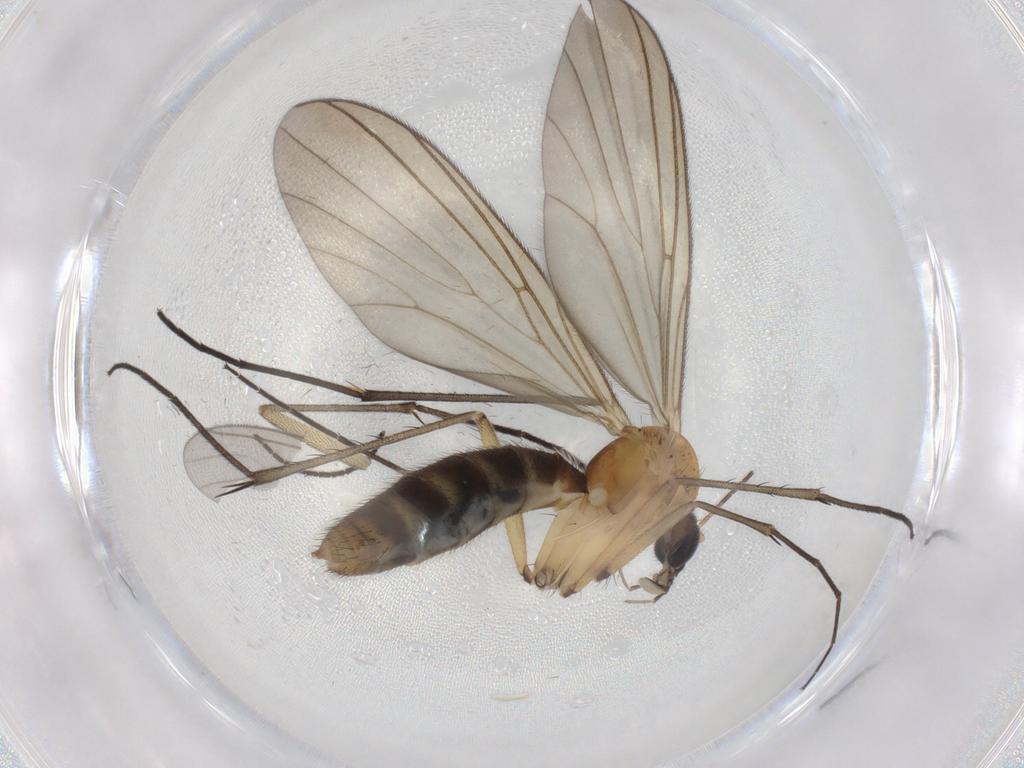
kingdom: Animalia
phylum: Arthropoda
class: Insecta
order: Diptera
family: Sciaridae
